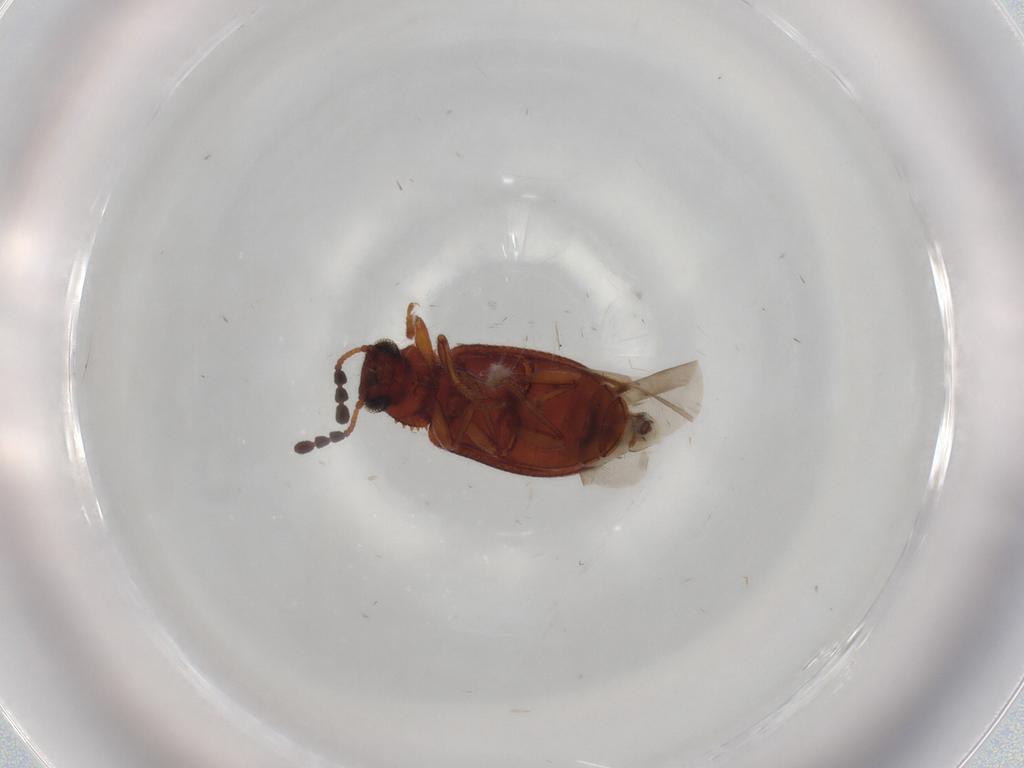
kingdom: Animalia
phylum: Arthropoda
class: Insecta
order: Coleoptera
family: Tenebrionidae
